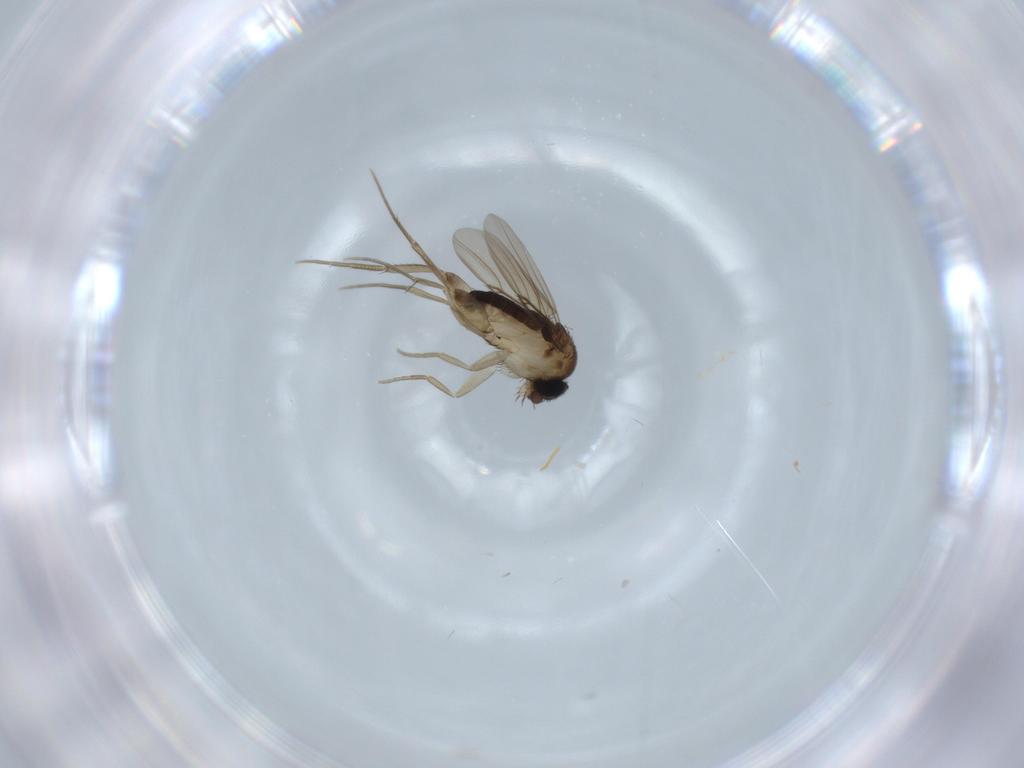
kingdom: Animalia
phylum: Arthropoda
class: Insecta
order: Diptera
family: Phoridae
